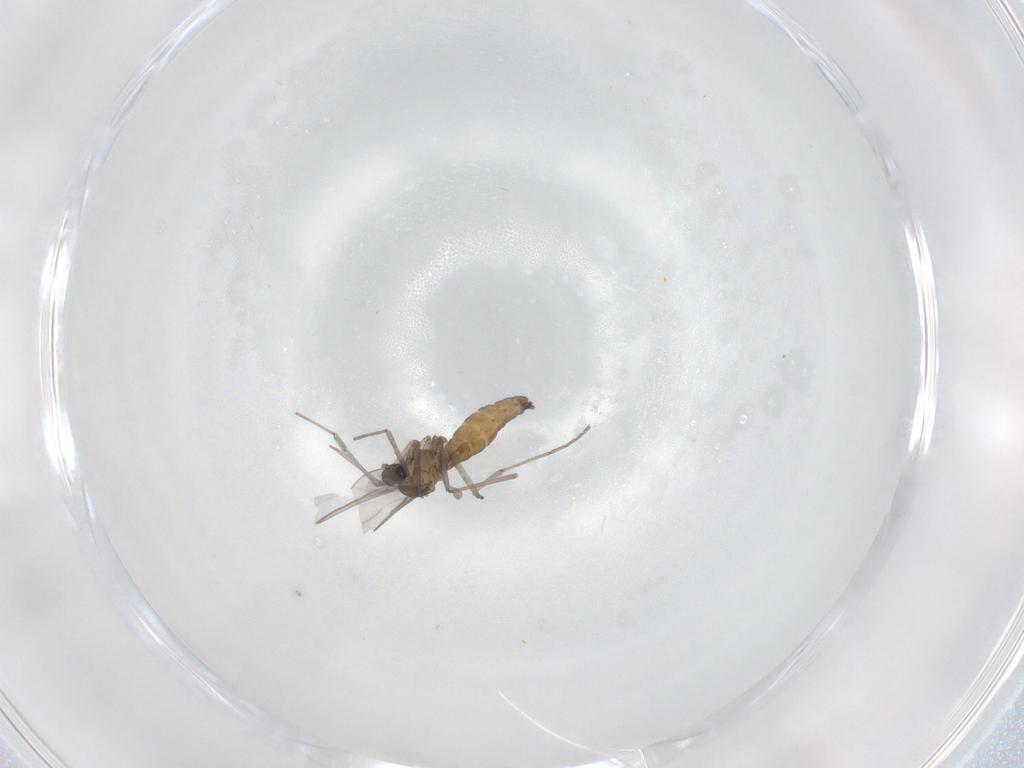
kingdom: Animalia
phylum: Arthropoda
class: Insecta
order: Diptera
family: Cecidomyiidae
